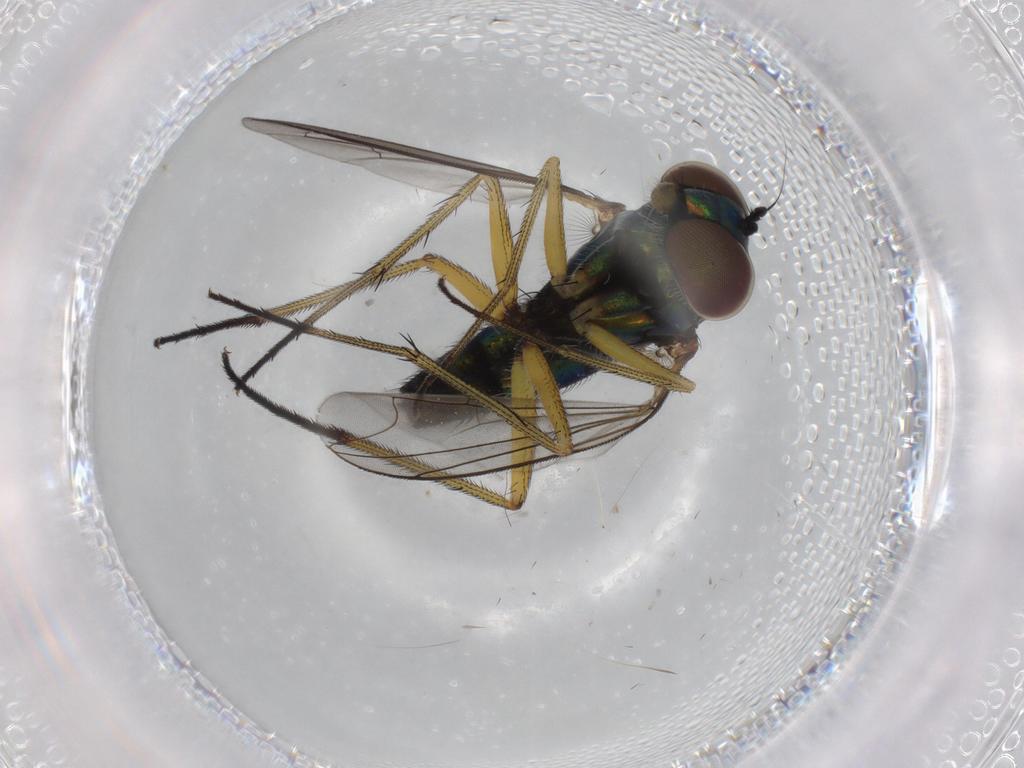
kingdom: Animalia
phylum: Arthropoda
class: Insecta
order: Diptera
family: Dolichopodidae
